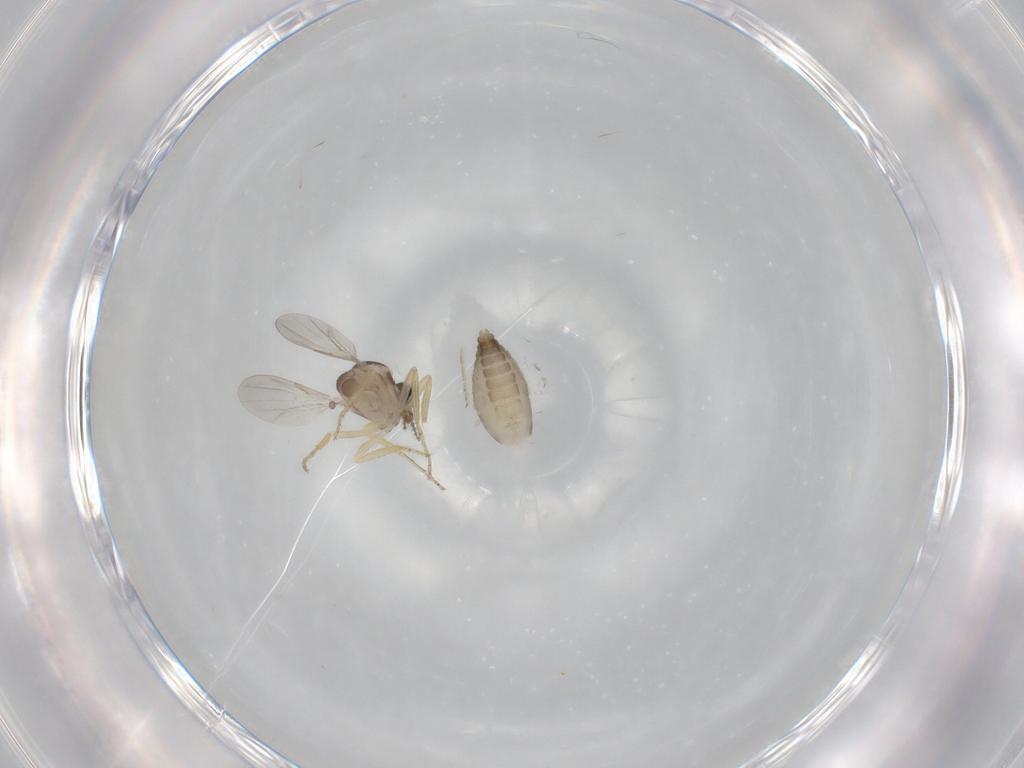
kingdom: Animalia
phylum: Arthropoda
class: Insecta
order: Diptera
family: Ceratopogonidae
